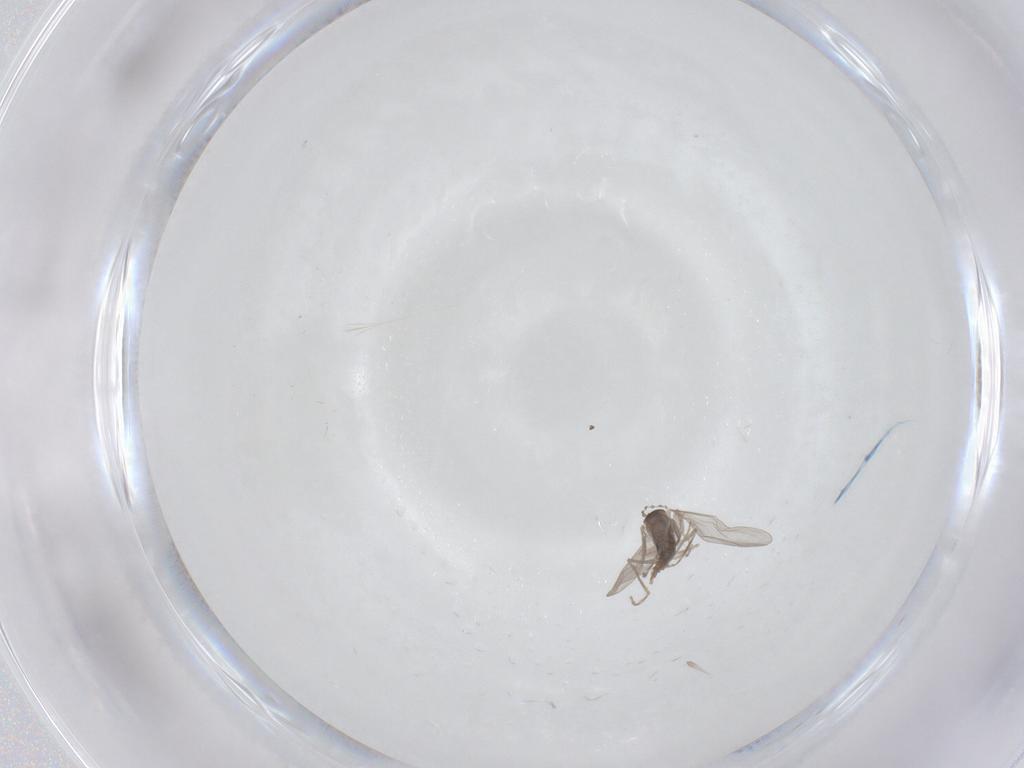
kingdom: Animalia
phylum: Arthropoda
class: Insecta
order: Diptera
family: Cecidomyiidae
